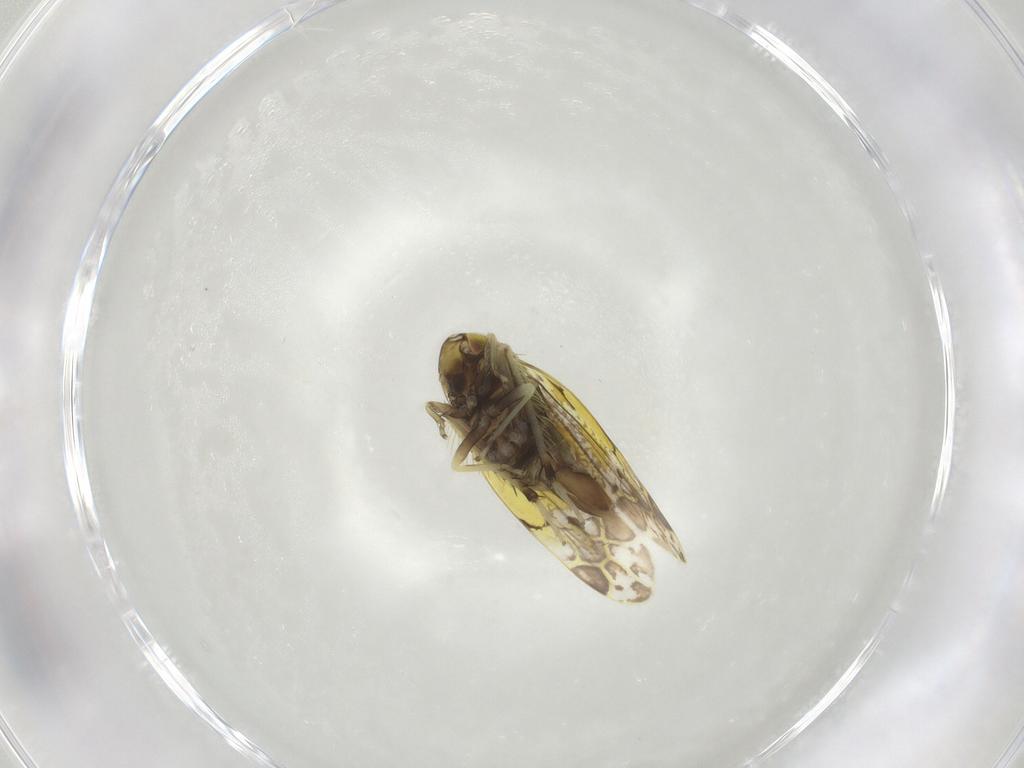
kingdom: Animalia
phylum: Arthropoda
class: Insecta
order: Hemiptera
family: Cicadellidae
